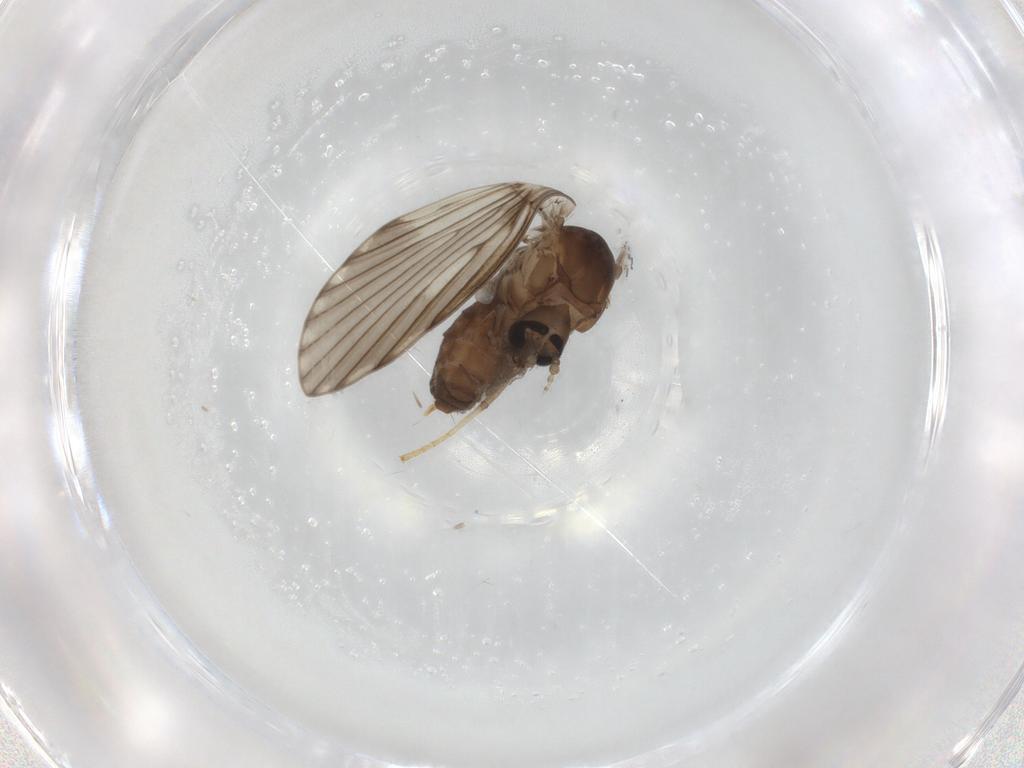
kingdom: Animalia
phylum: Arthropoda
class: Insecta
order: Diptera
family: Psychodidae
